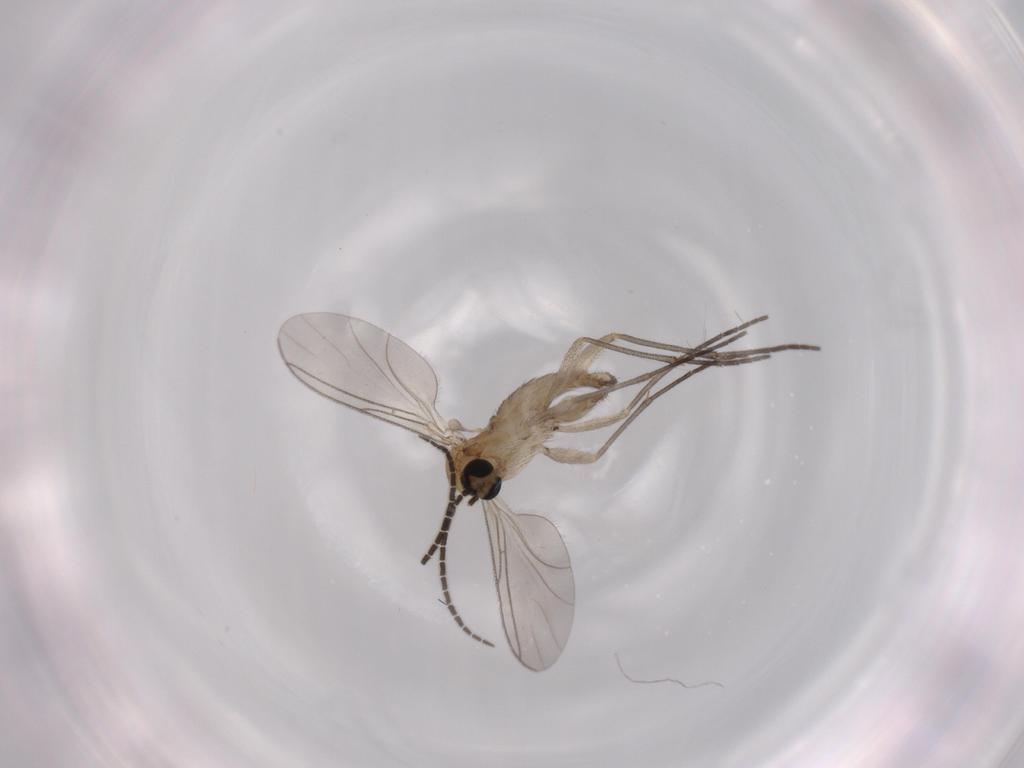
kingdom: Animalia
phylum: Arthropoda
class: Insecta
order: Diptera
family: Sciaridae
